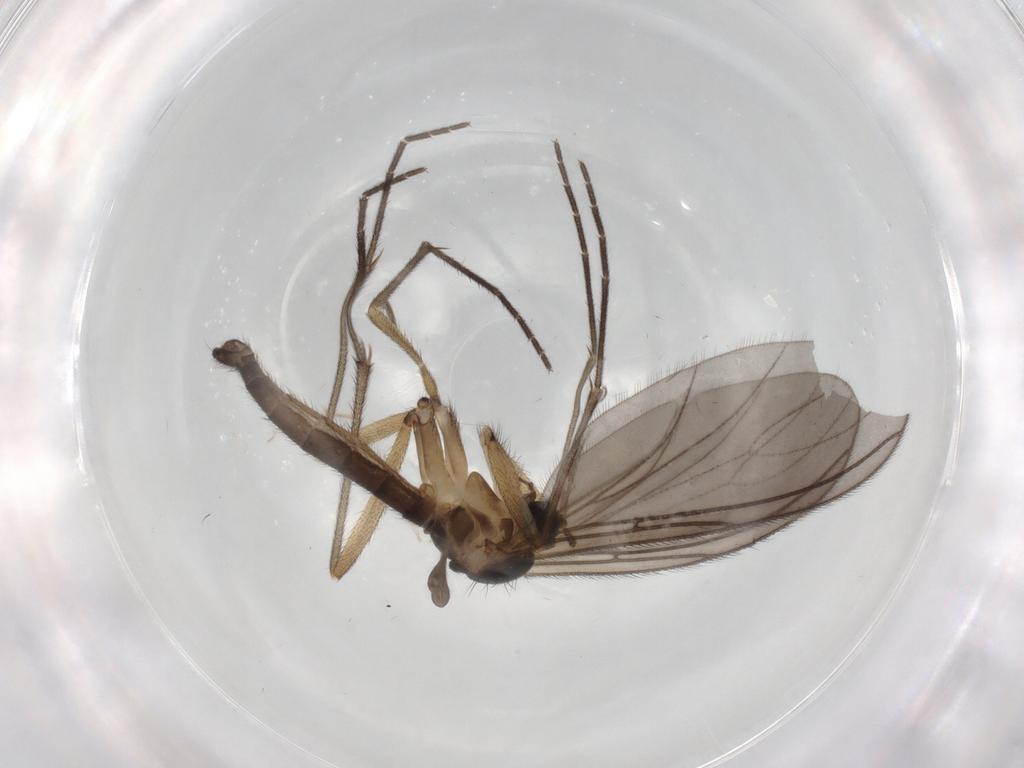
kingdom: Animalia
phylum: Arthropoda
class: Insecta
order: Diptera
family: Sciaridae
